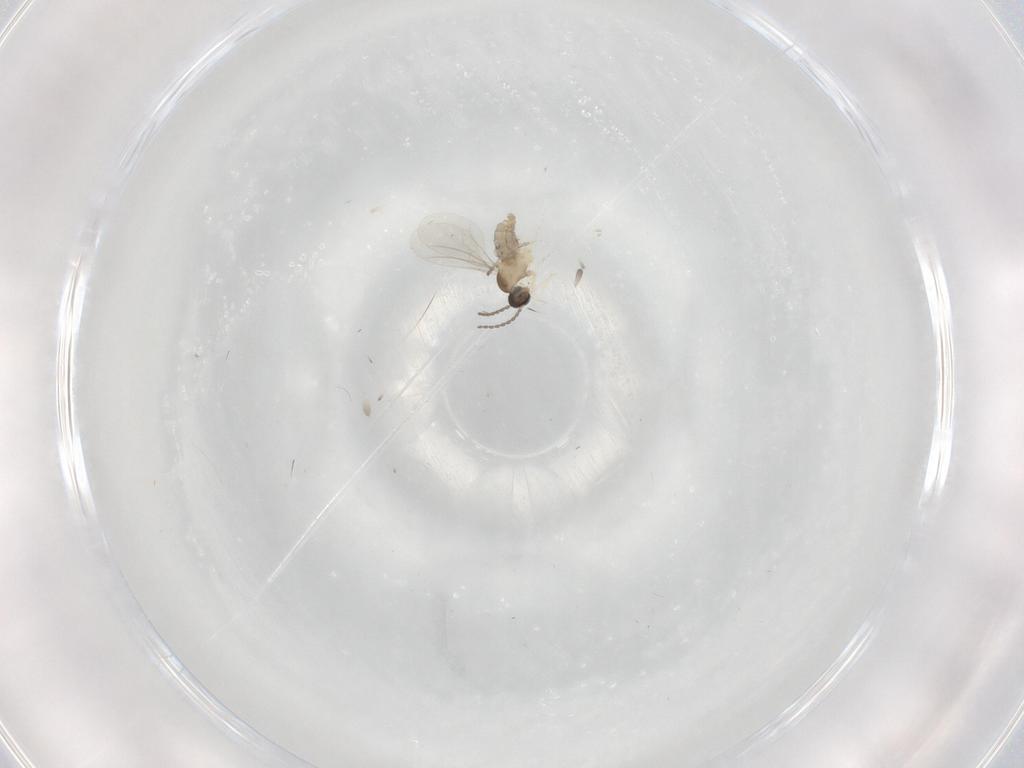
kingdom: Animalia
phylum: Arthropoda
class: Insecta
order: Diptera
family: Cecidomyiidae
